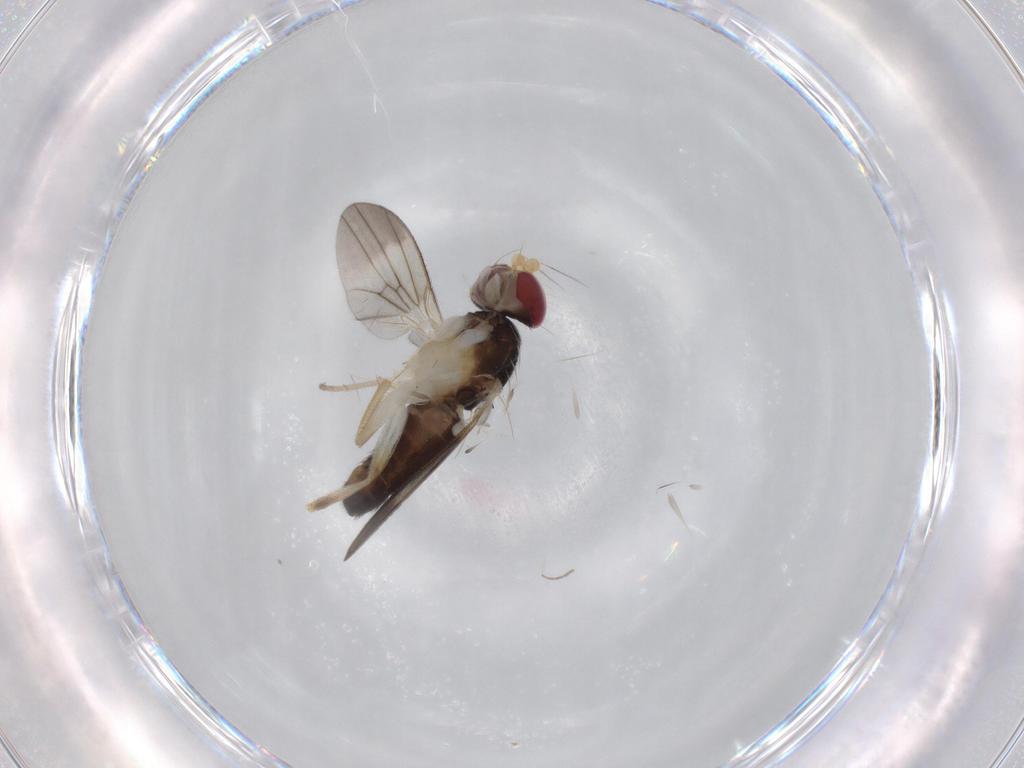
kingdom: Animalia
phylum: Arthropoda
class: Insecta
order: Diptera
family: Clusiidae
